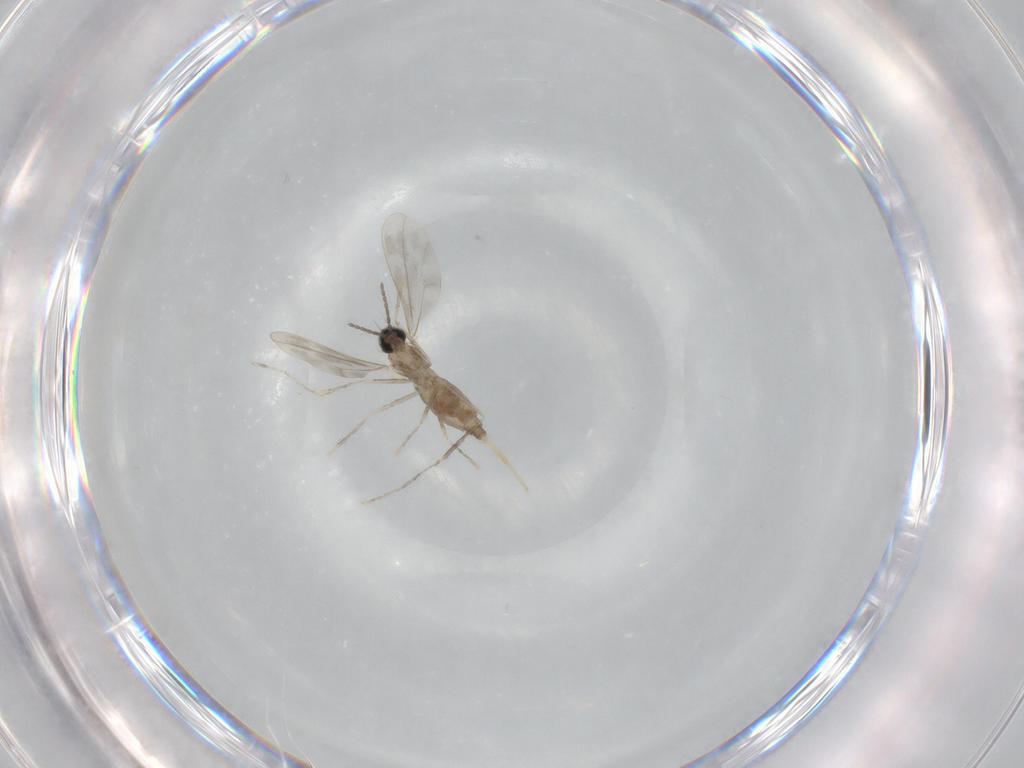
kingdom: Animalia
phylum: Arthropoda
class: Insecta
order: Diptera
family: Cecidomyiidae
